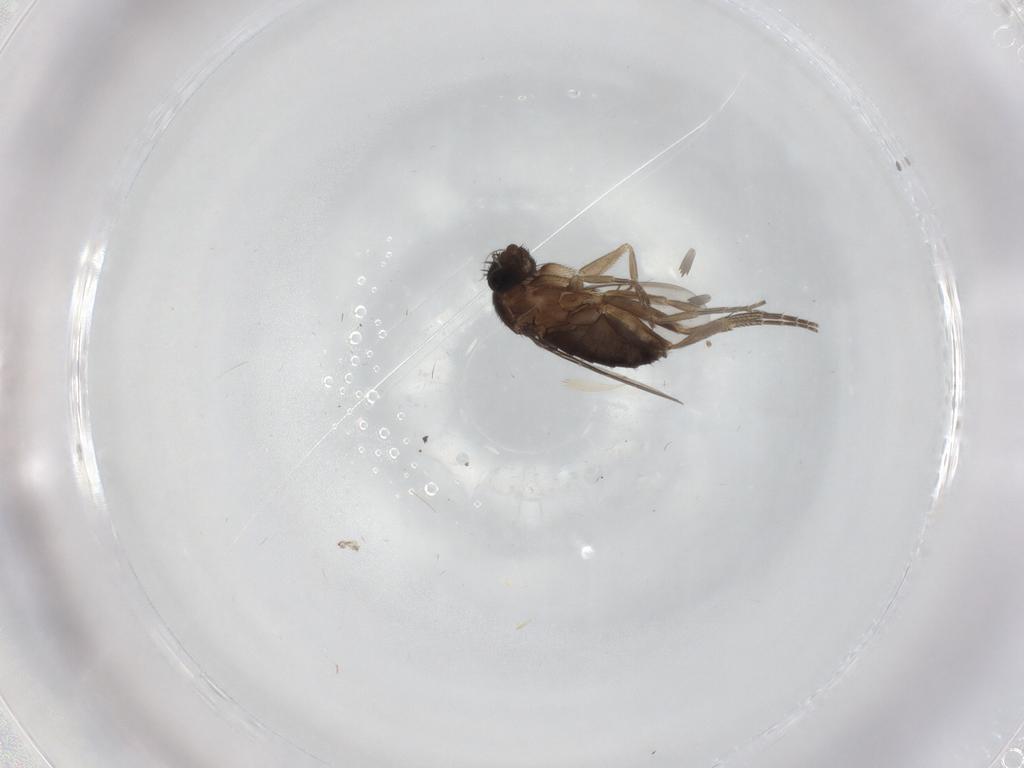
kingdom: Animalia
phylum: Arthropoda
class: Insecta
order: Diptera
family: Phoridae
